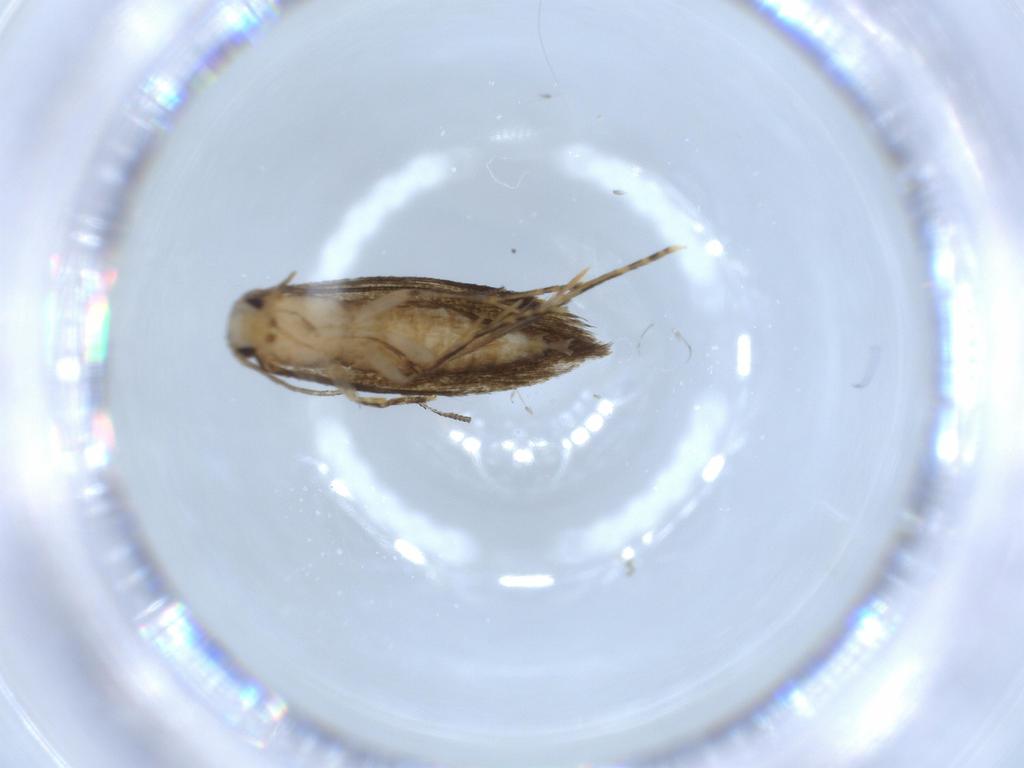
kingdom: Animalia
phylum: Arthropoda
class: Insecta
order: Lepidoptera
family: Tineidae
